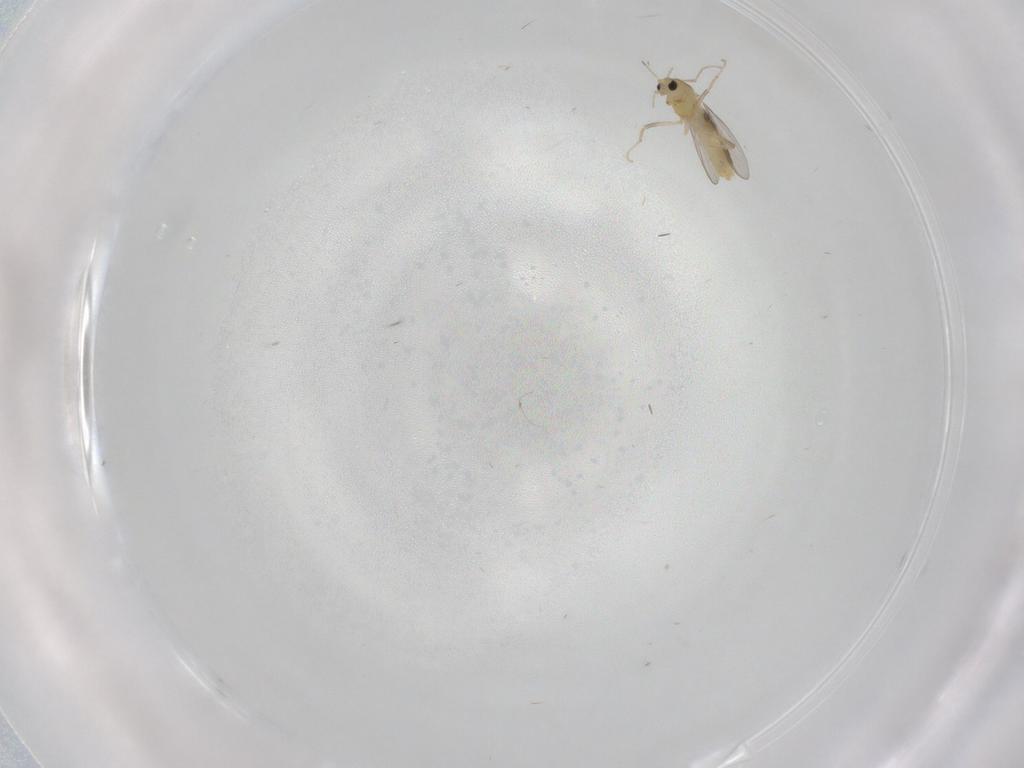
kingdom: Animalia
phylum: Arthropoda
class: Insecta
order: Diptera
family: Chironomidae
